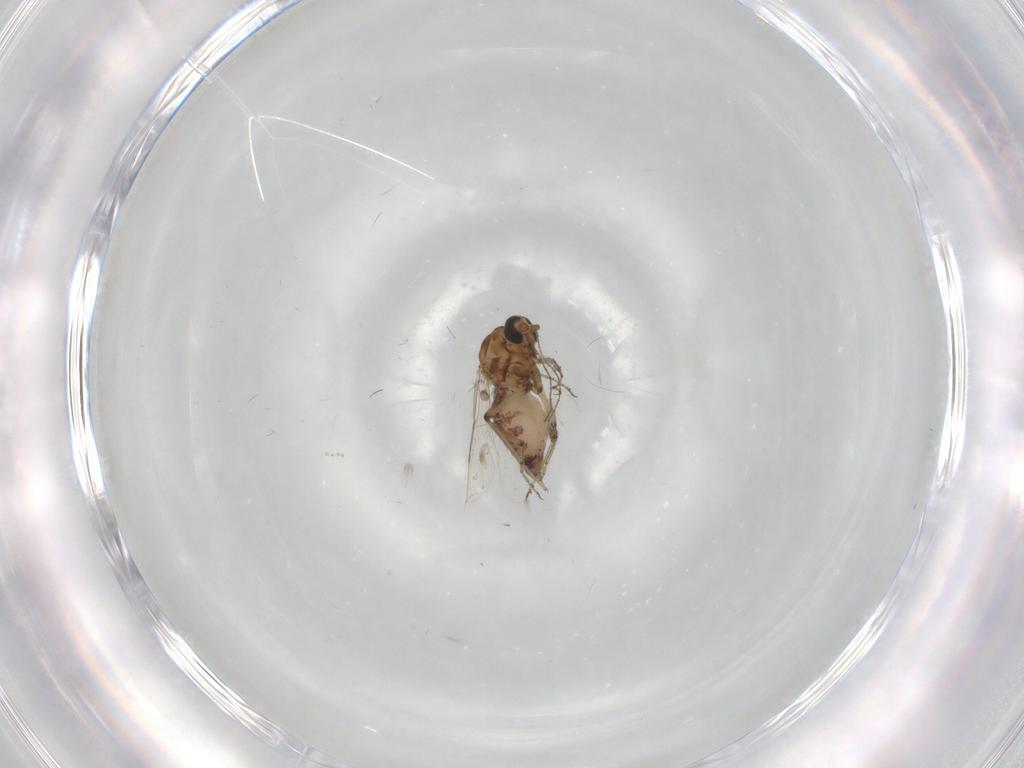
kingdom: Animalia
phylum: Arthropoda
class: Insecta
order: Diptera
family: Ceratopogonidae
